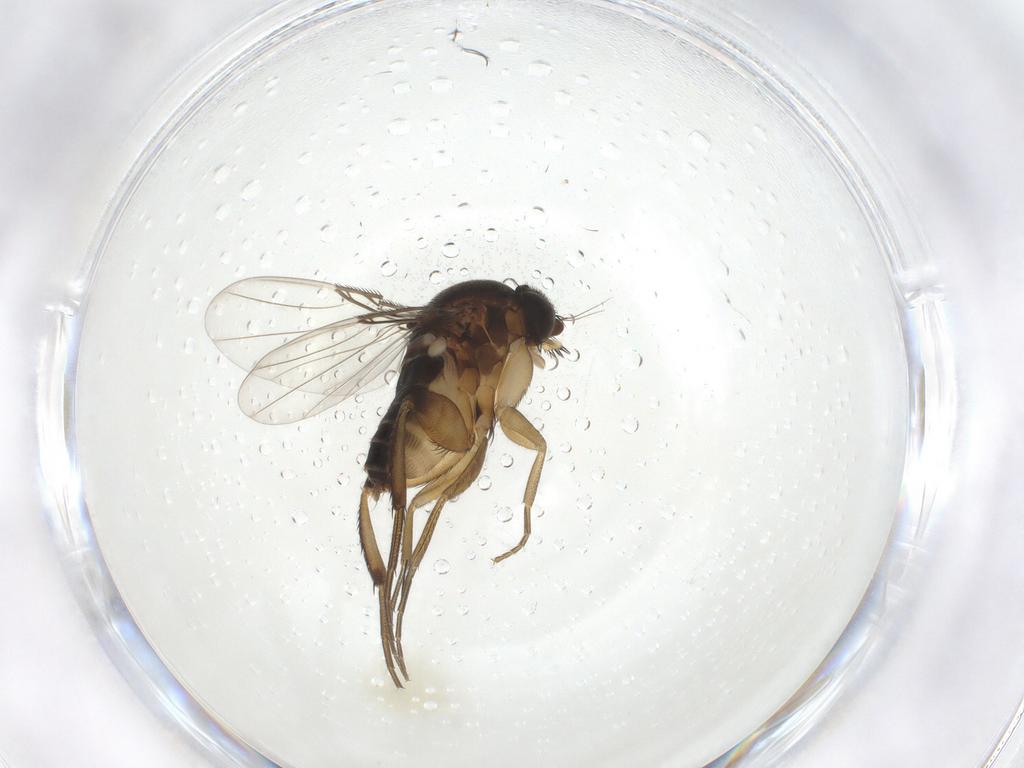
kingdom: Animalia
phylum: Arthropoda
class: Insecta
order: Diptera
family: Phoridae
